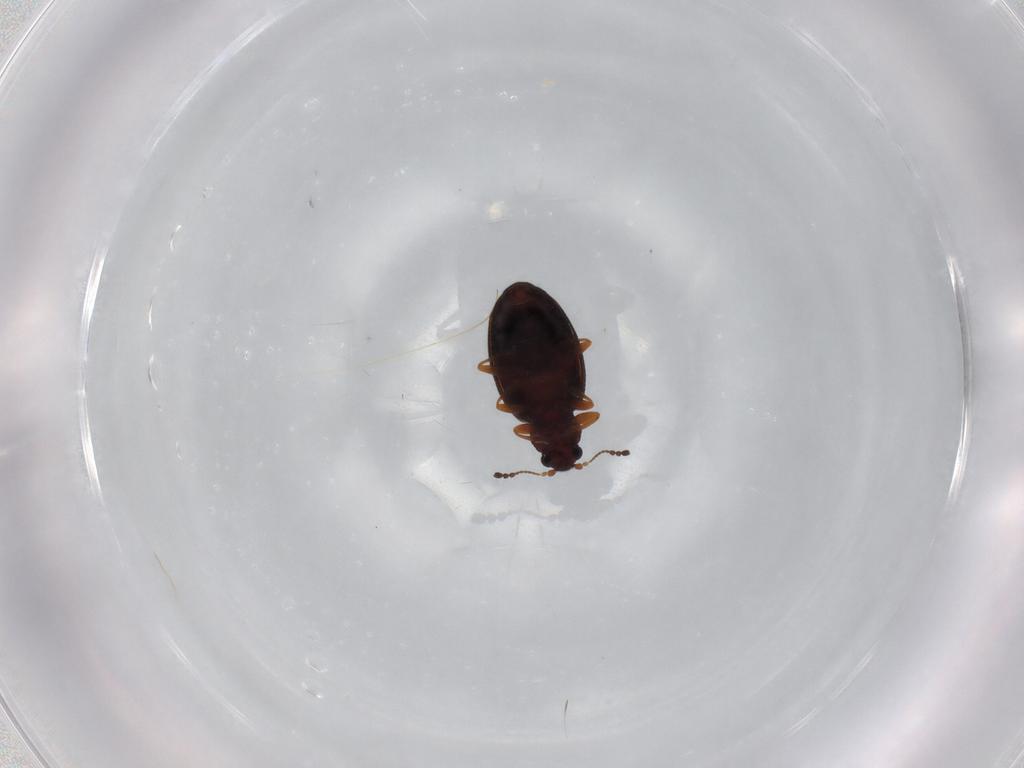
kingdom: Animalia
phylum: Arthropoda
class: Insecta
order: Coleoptera
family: Latridiidae
